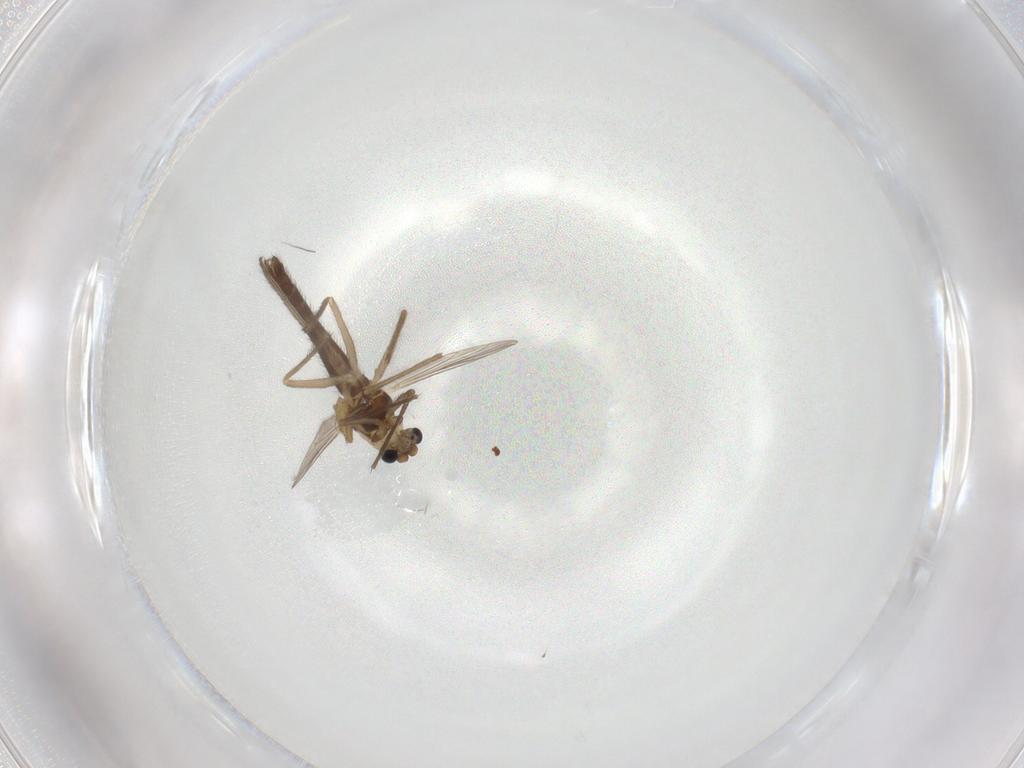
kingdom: Animalia
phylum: Arthropoda
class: Insecta
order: Diptera
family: Chironomidae
